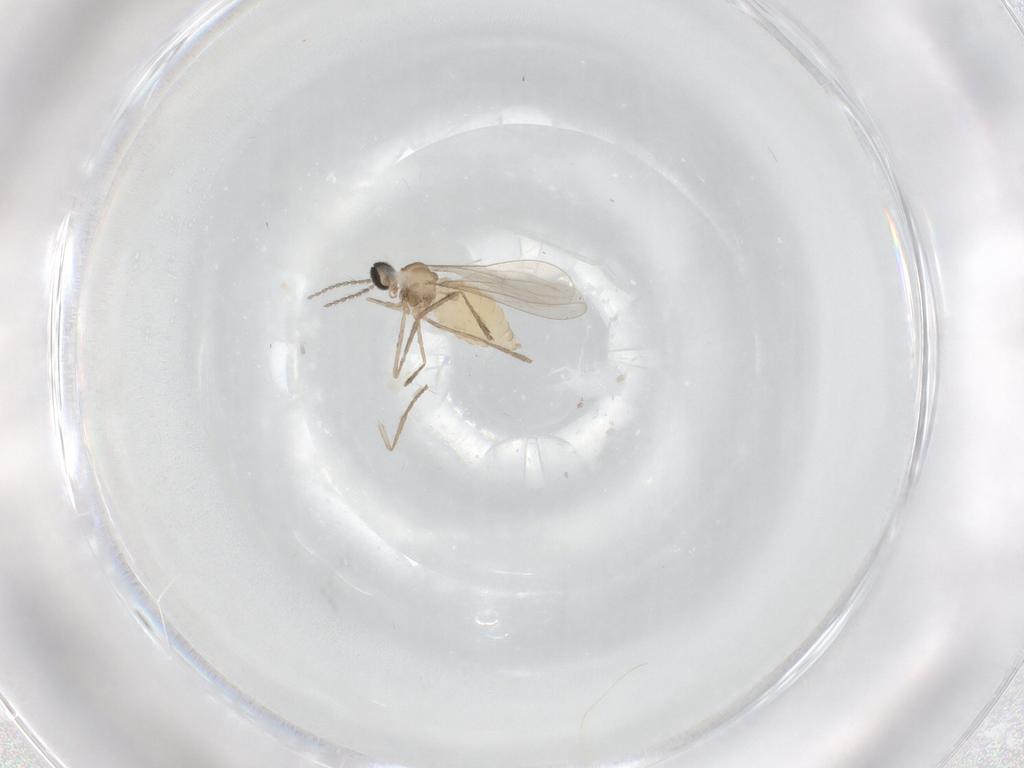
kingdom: Animalia
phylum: Arthropoda
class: Insecta
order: Diptera
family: Cecidomyiidae
